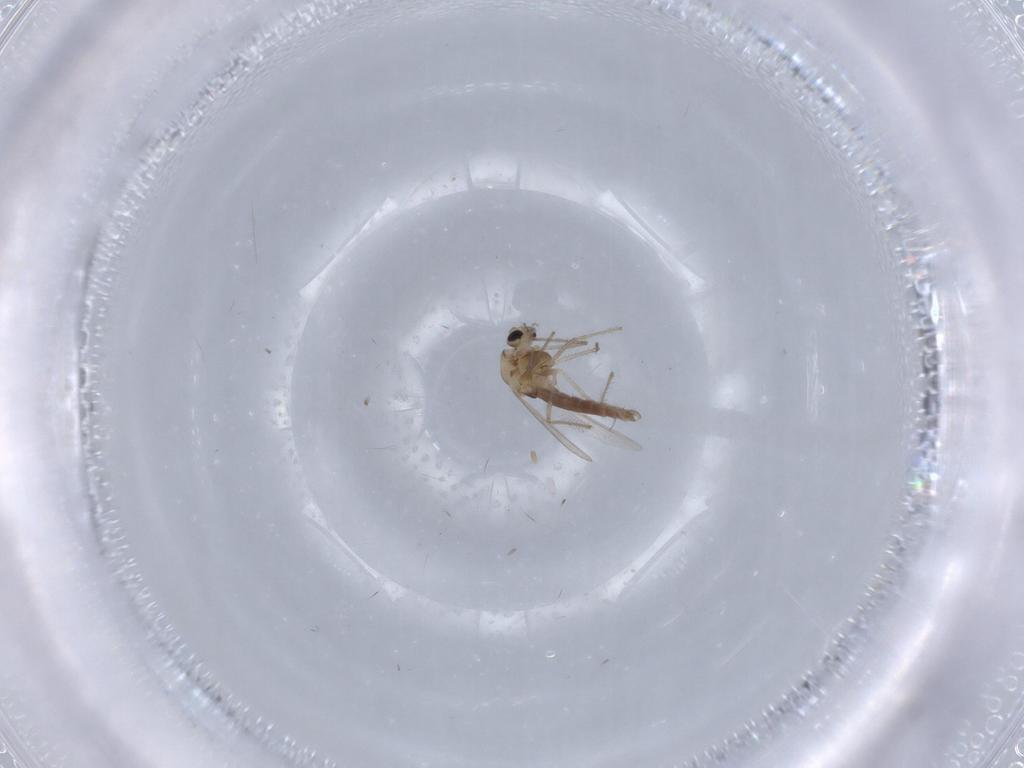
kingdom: Animalia
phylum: Arthropoda
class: Insecta
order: Diptera
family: Chironomidae
